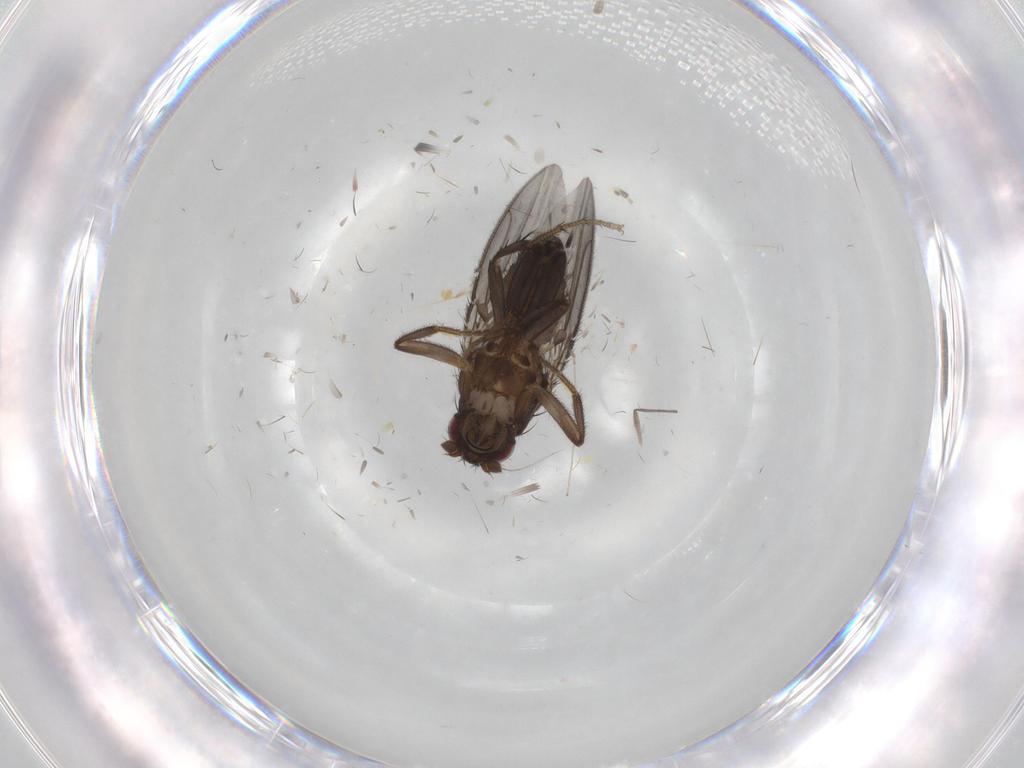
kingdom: Animalia
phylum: Arthropoda
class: Insecta
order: Diptera
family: Sphaeroceridae
